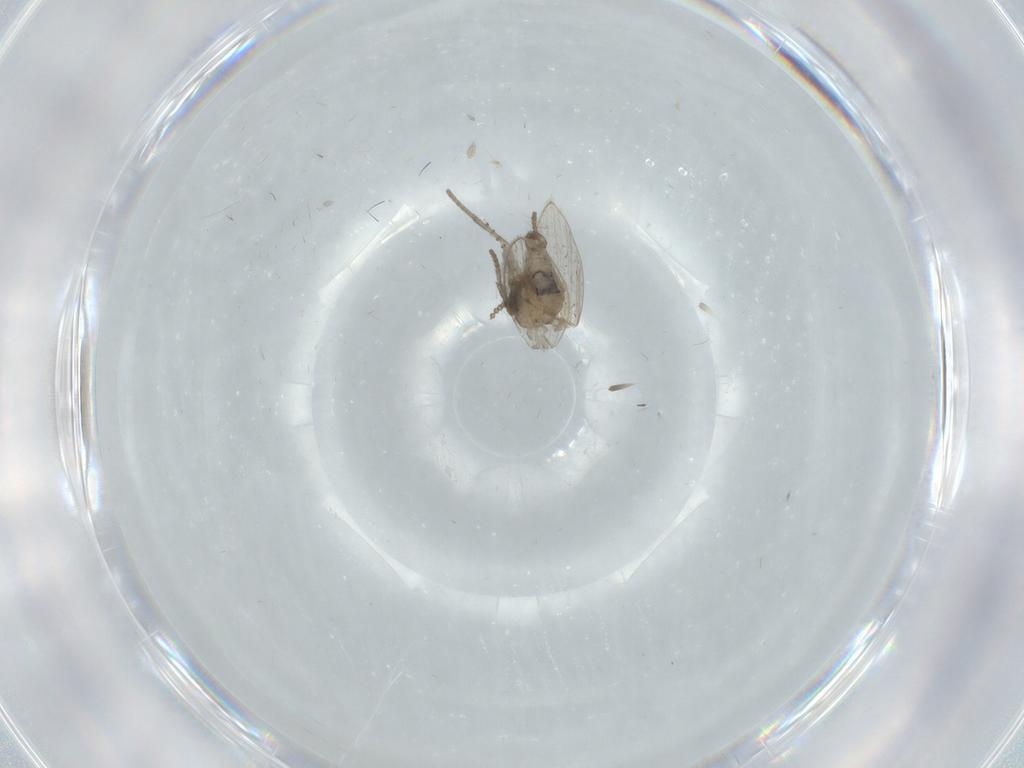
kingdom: Animalia
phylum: Arthropoda
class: Insecta
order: Diptera
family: Psychodidae
